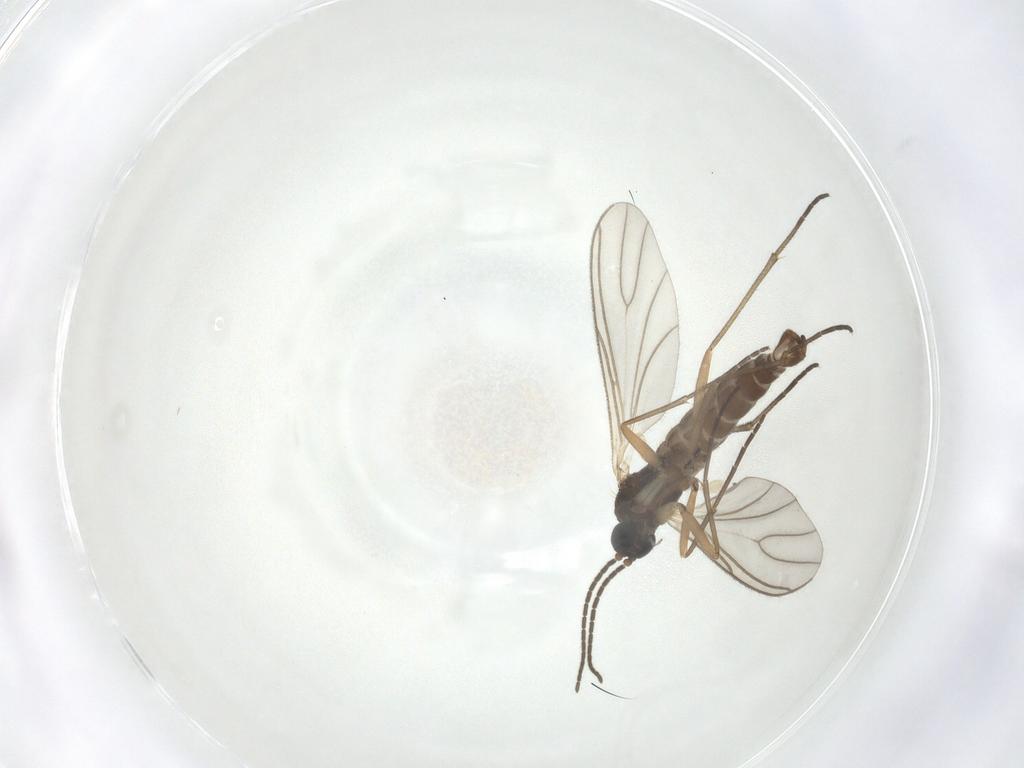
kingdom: Animalia
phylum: Arthropoda
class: Insecta
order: Diptera
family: Sciaridae
